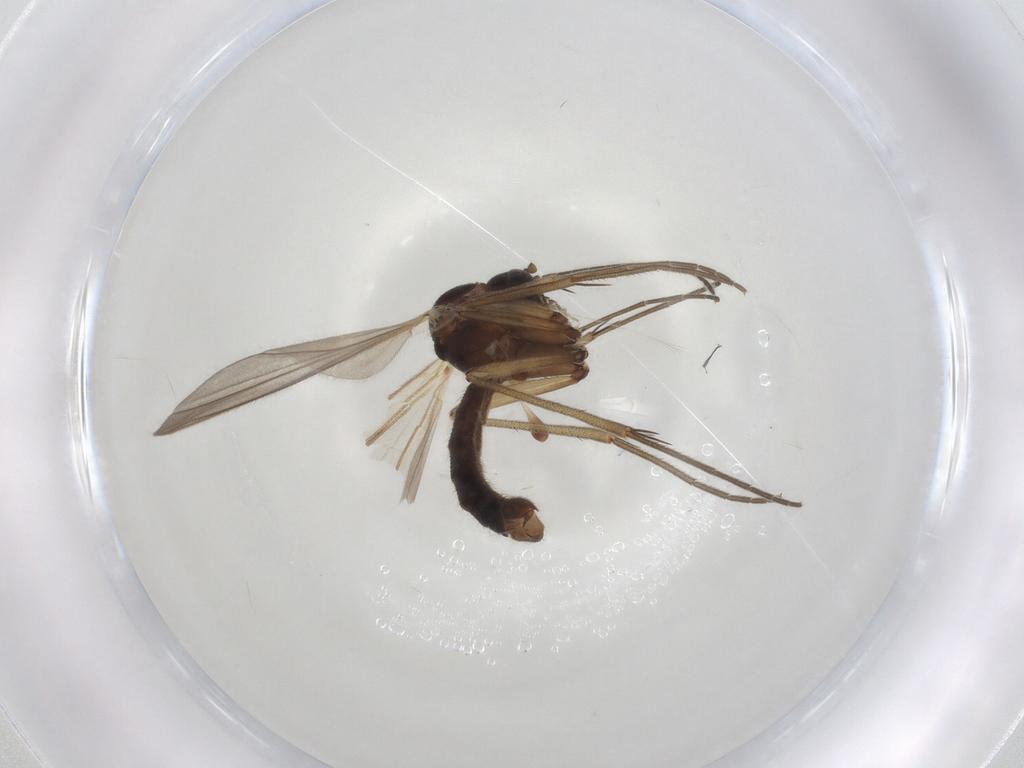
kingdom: Animalia
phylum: Arthropoda
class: Insecta
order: Diptera
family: Mycetophilidae
